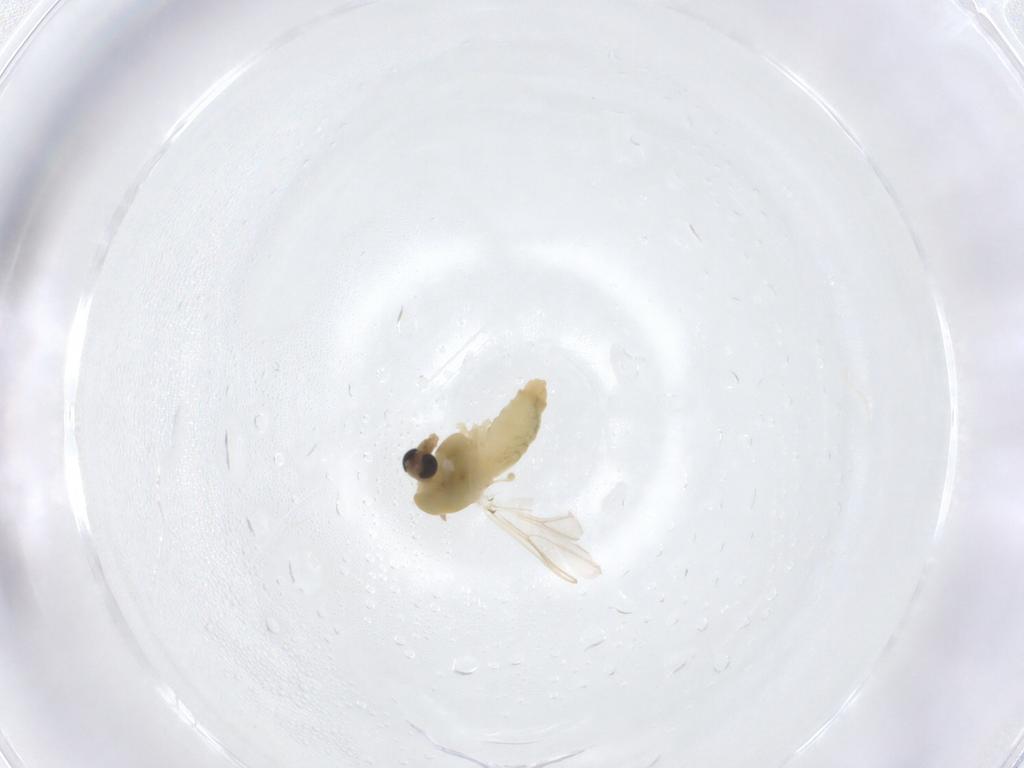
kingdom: Animalia
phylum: Arthropoda
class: Insecta
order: Diptera
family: Chironomidae
